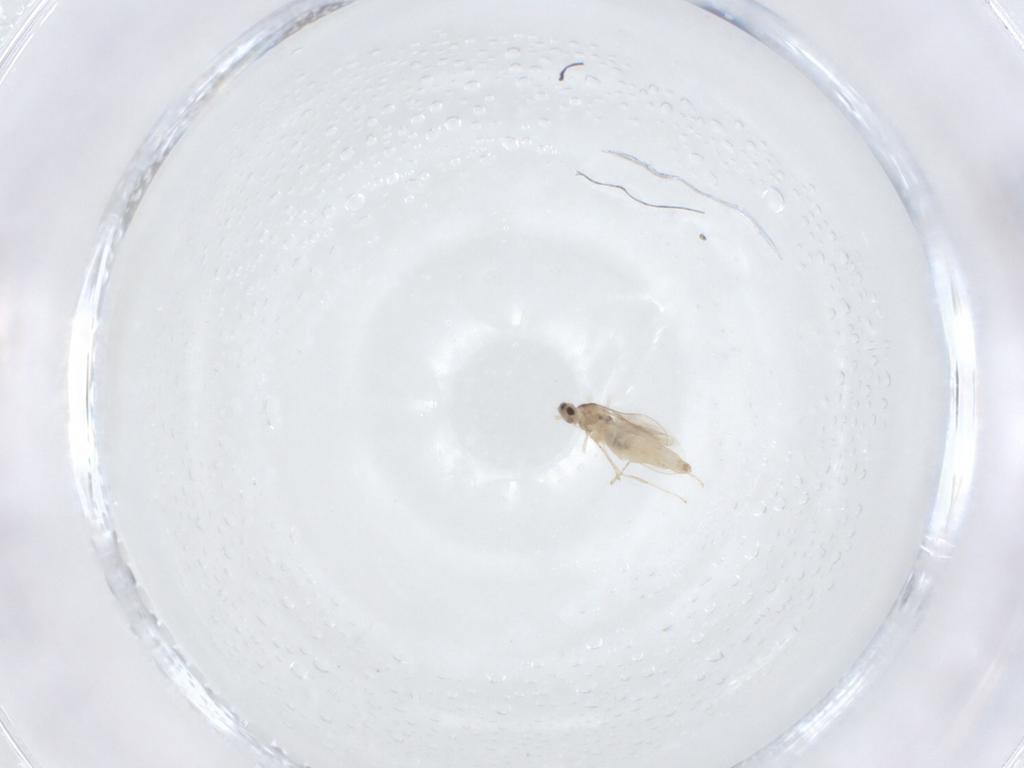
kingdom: Animalia
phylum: Arthropoda
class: Insecta
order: Diptera
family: Cecidomyiidae
